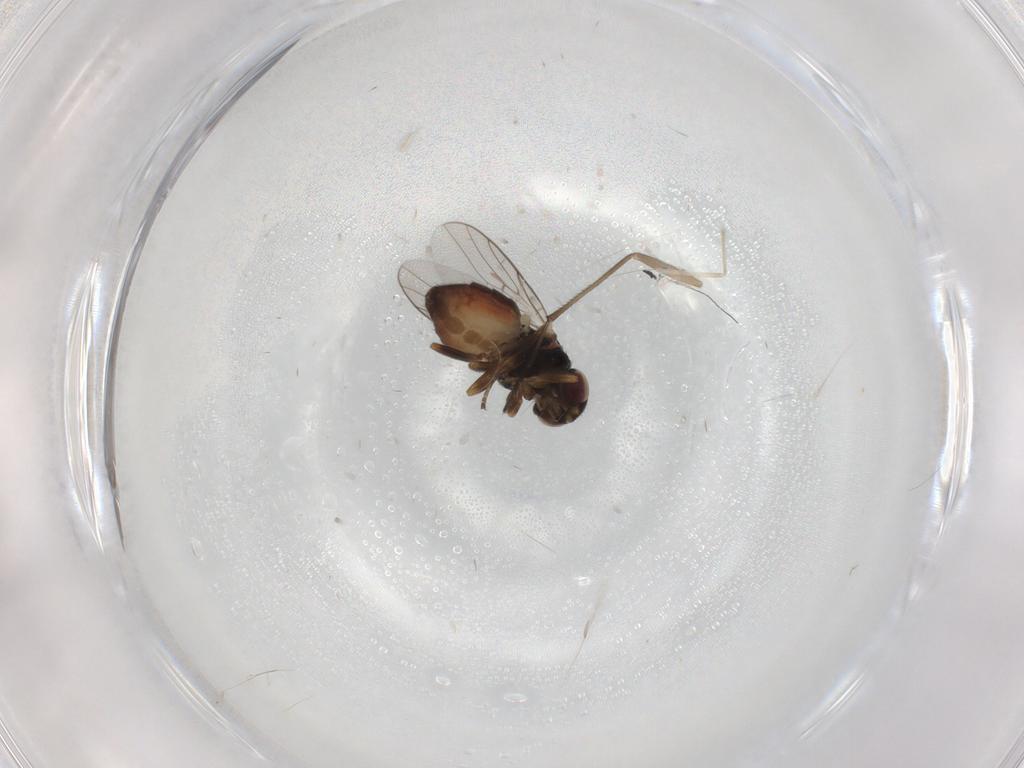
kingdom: Animalia
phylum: Arthropoda
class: Insecta
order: Diptera
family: Chloropidae
